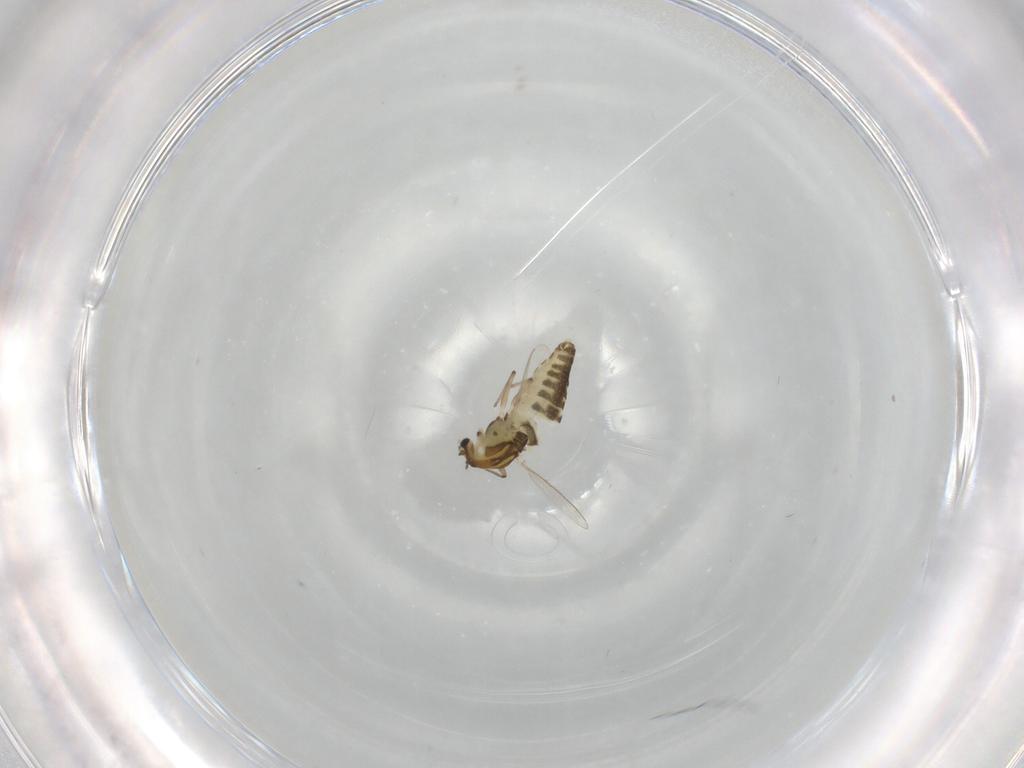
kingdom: Animalia
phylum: Arthropoda
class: Insecta
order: Diptera
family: Chironomidae
